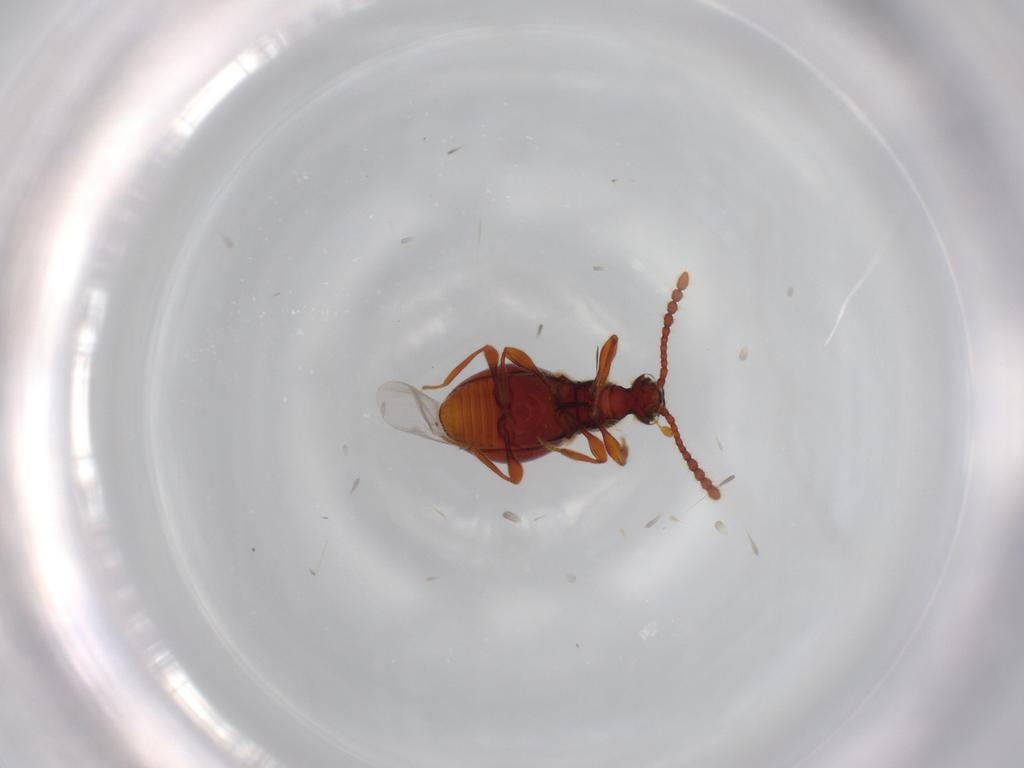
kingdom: Animalia
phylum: Arthropoda
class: Insecta
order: Coleoptera
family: Staphylinidae
